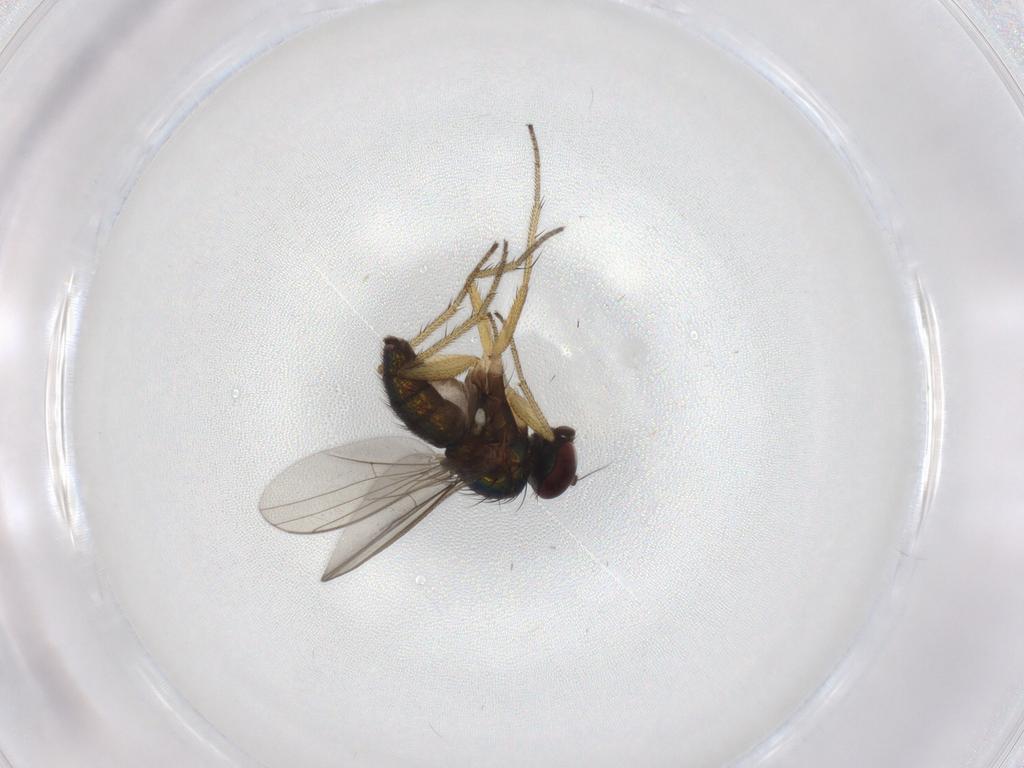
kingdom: Animalia
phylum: Arthropoda
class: Insecta
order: Diptera
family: Dolichopodidae
